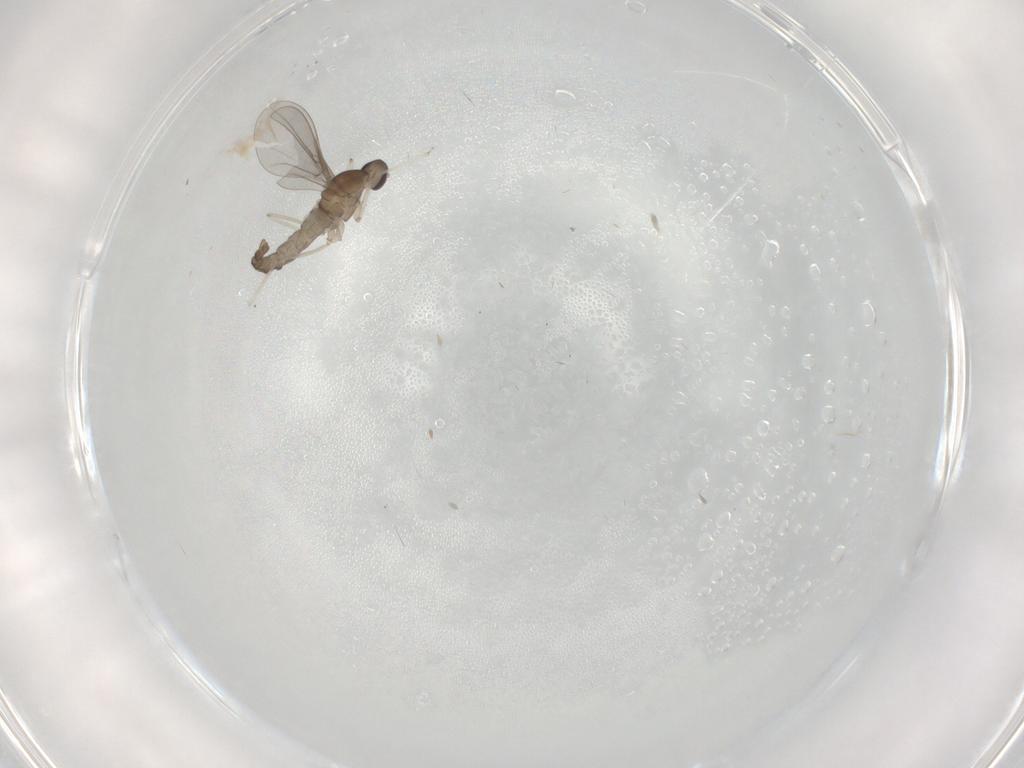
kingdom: Animalia
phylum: Arthropoda
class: Insecta
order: Diptera
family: Cecidomyiidae
